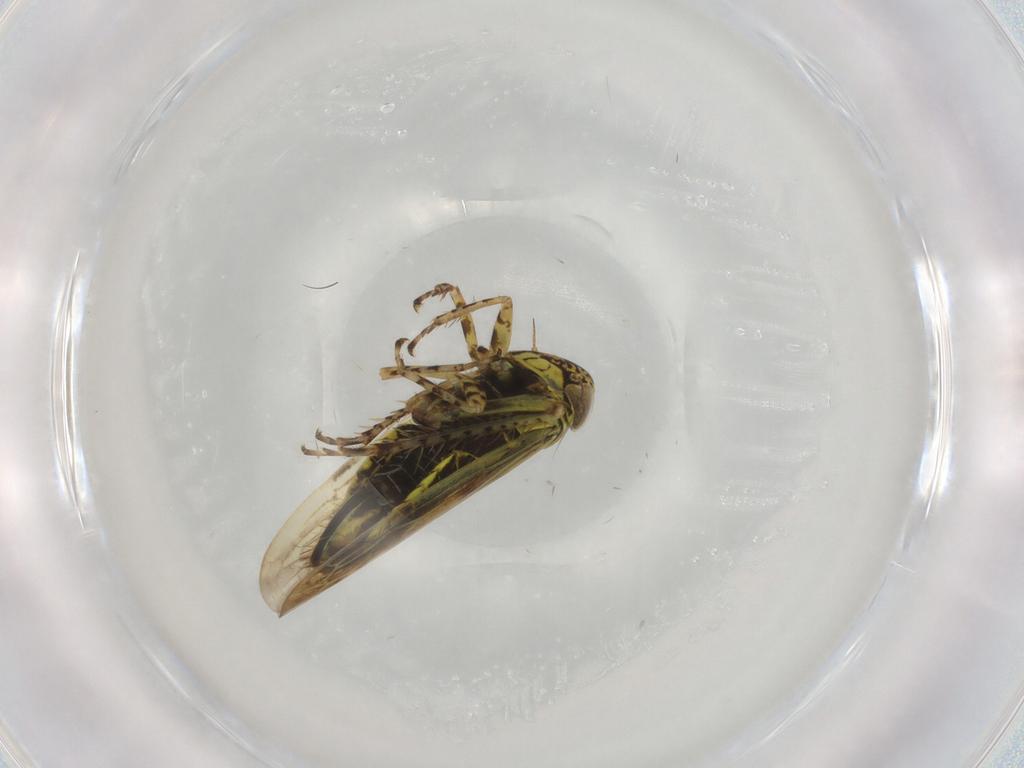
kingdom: Animalia
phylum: Arthropoda
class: Insecta
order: Hemiptera
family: Cicadellidae
